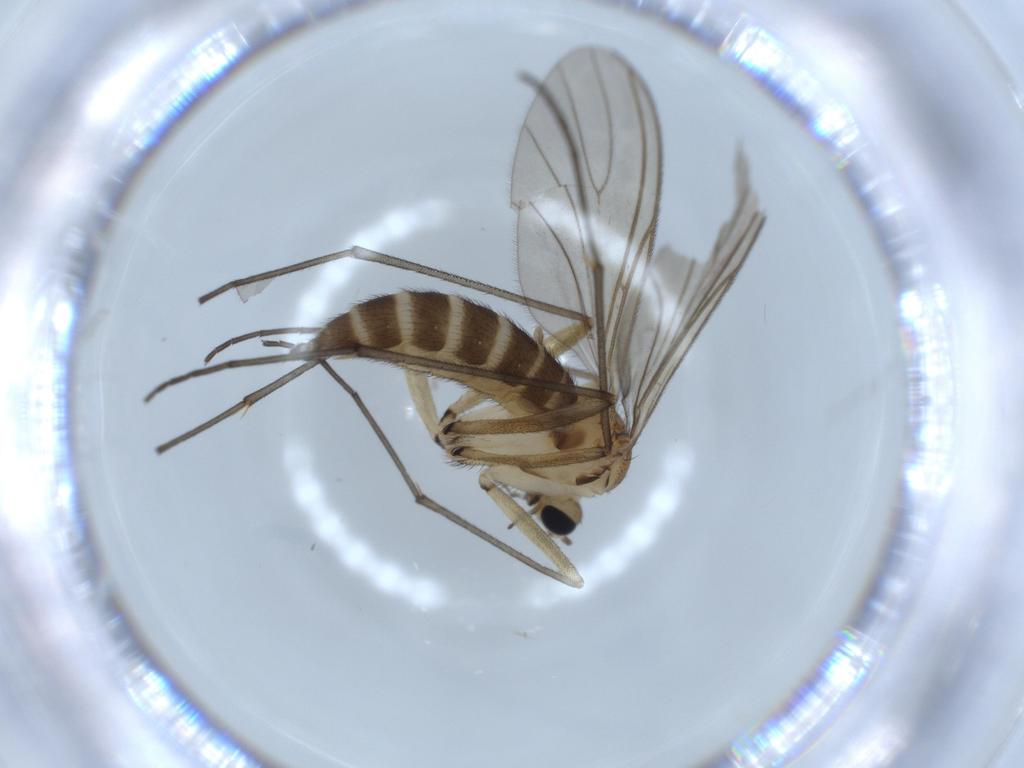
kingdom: Animalia
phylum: Arthropoda
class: Insecta
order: Diptera
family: Sciaridae
